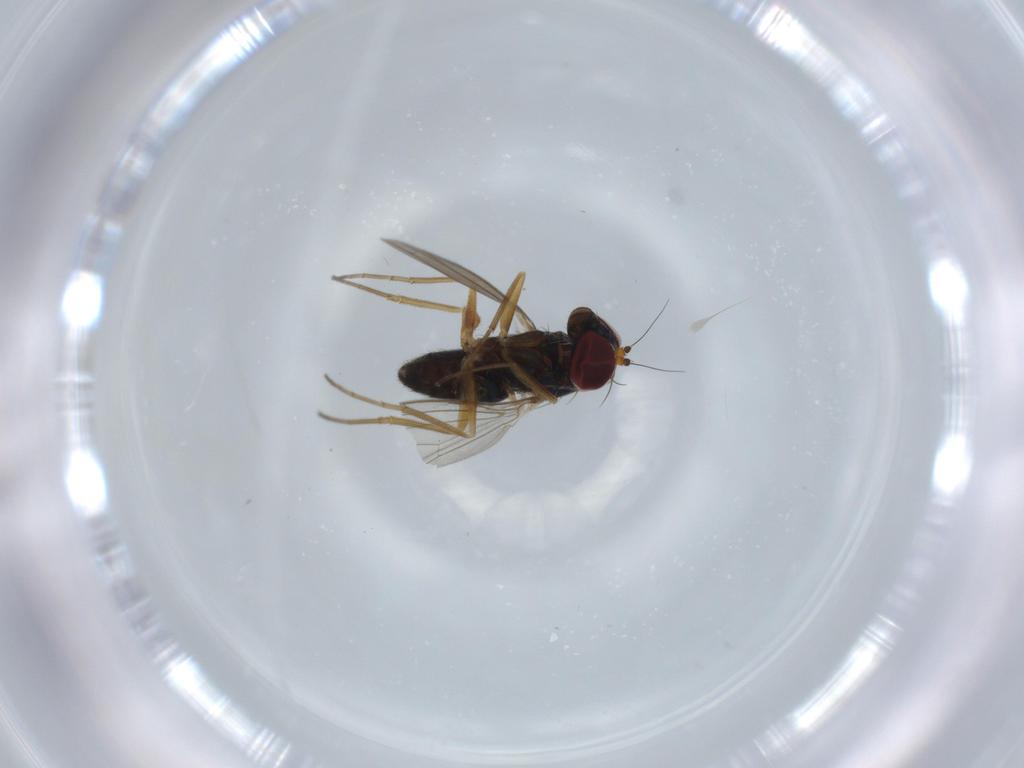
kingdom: Animalia
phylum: Arthropoda
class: Insecta
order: Diptera
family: Dolichopodidae
